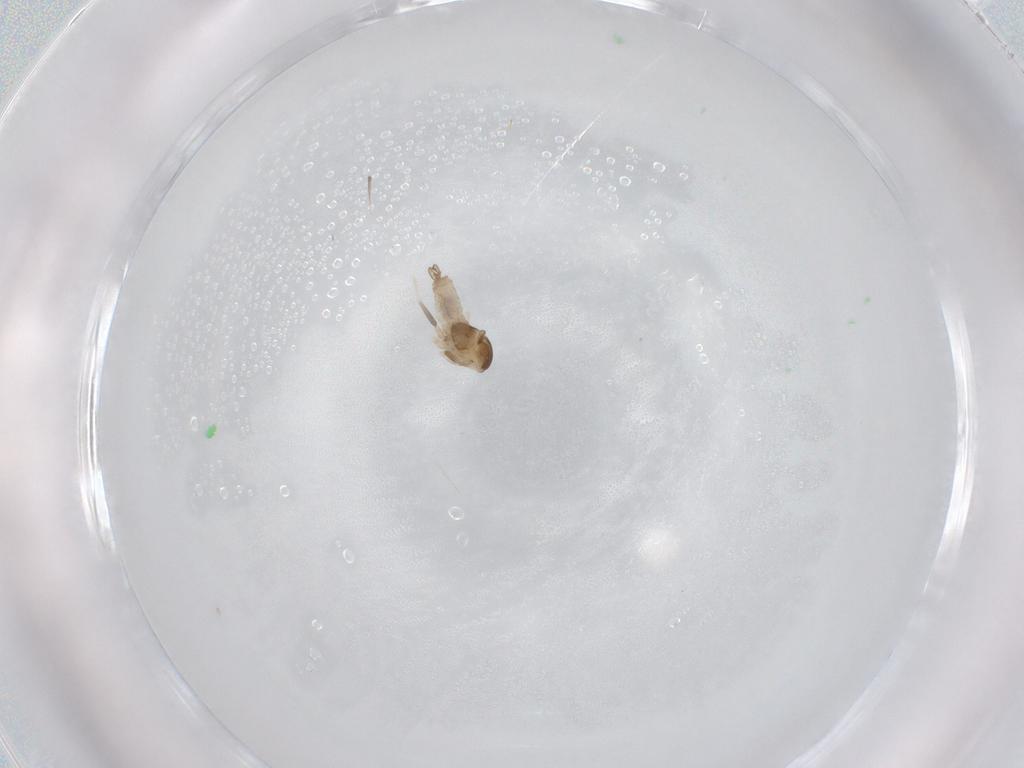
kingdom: Animalia
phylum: Arthropoda
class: Insecta
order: Diptera
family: Cecidomyiidae
